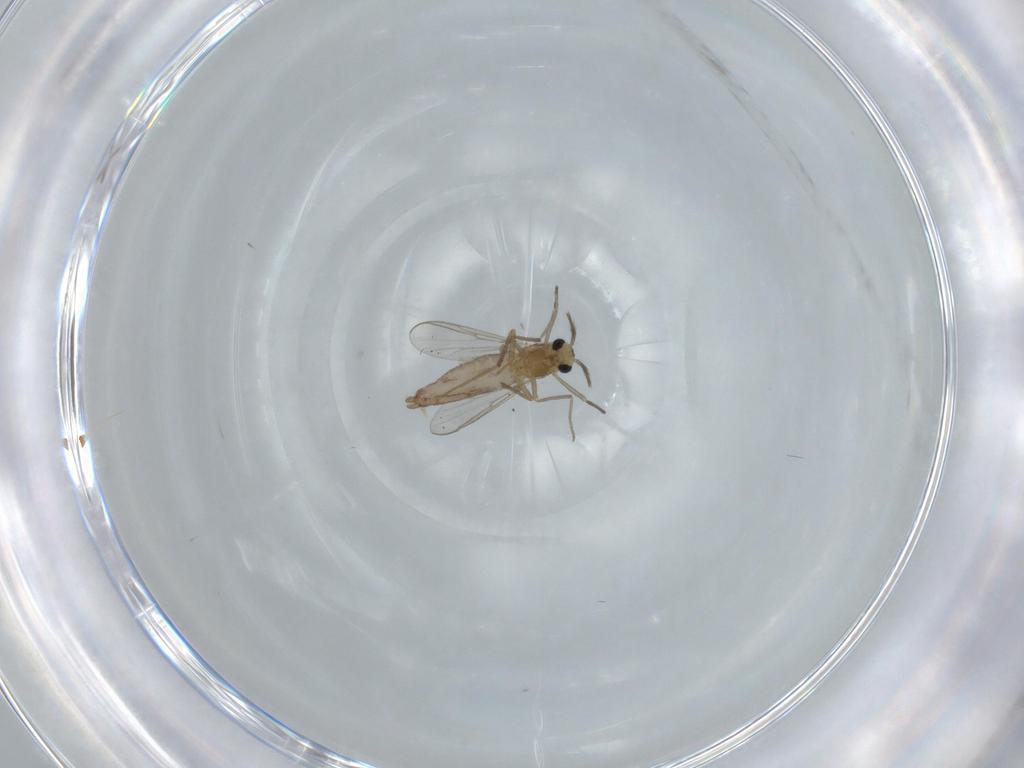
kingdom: Animalia
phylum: Arthropoda
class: Insecta
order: Diptera
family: Chironomidae
